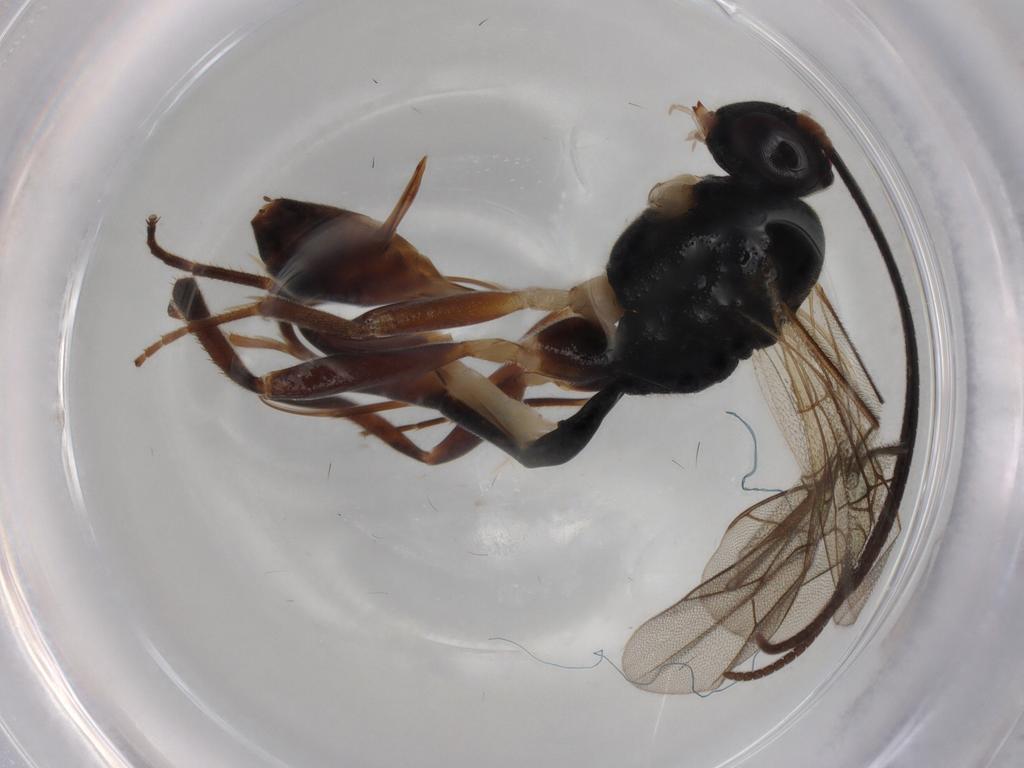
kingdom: Animalia
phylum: Arthropoda
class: Insecta
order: Hymenoptera
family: Ichneumonidae
